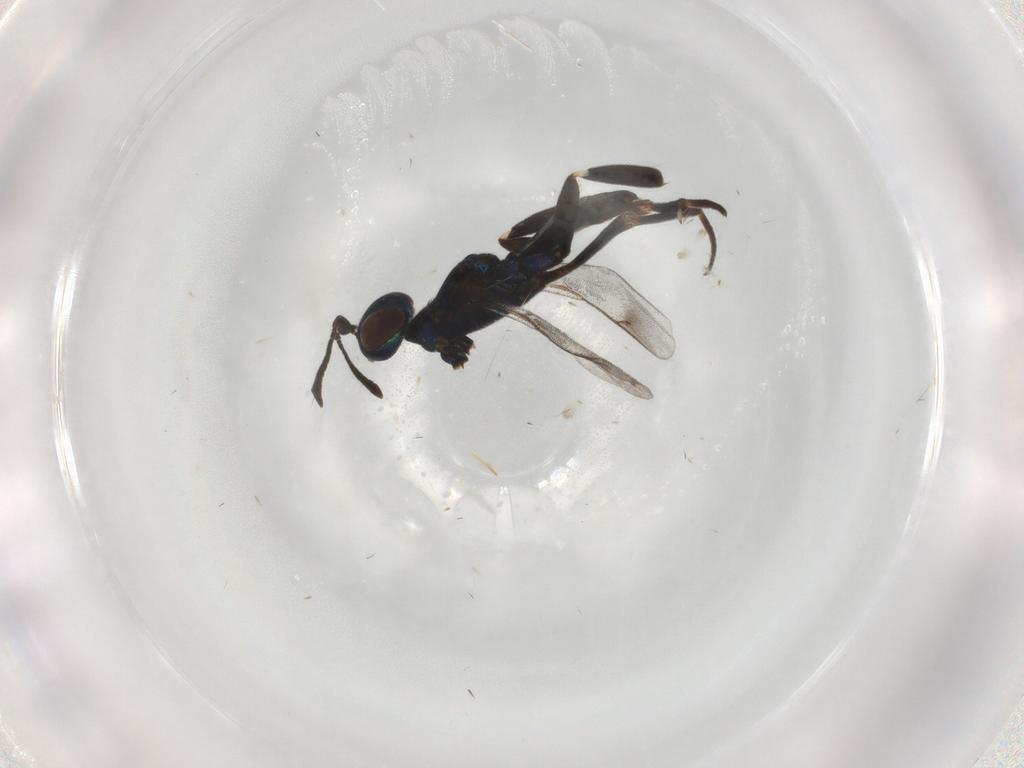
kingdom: Animalia
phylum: Arthropoda
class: Insecta
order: Hymenoptera
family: Eupelmidae
